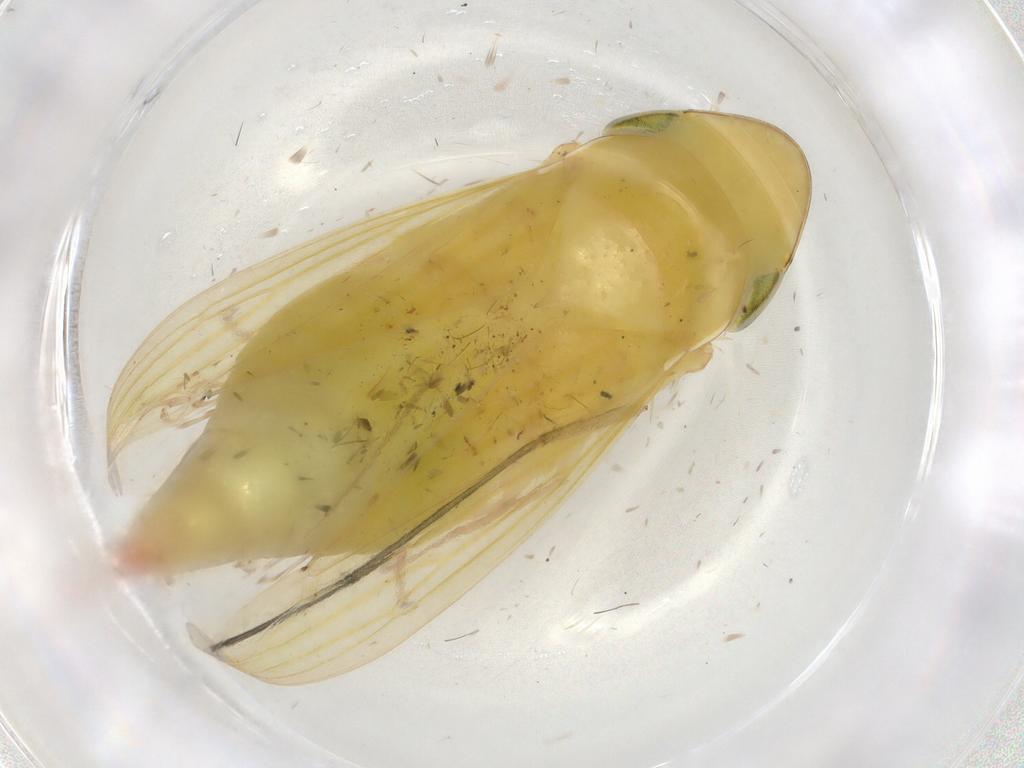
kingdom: Animalia
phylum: Arthropoda
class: Insecta
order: Hemiptera
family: Cicadellidae
